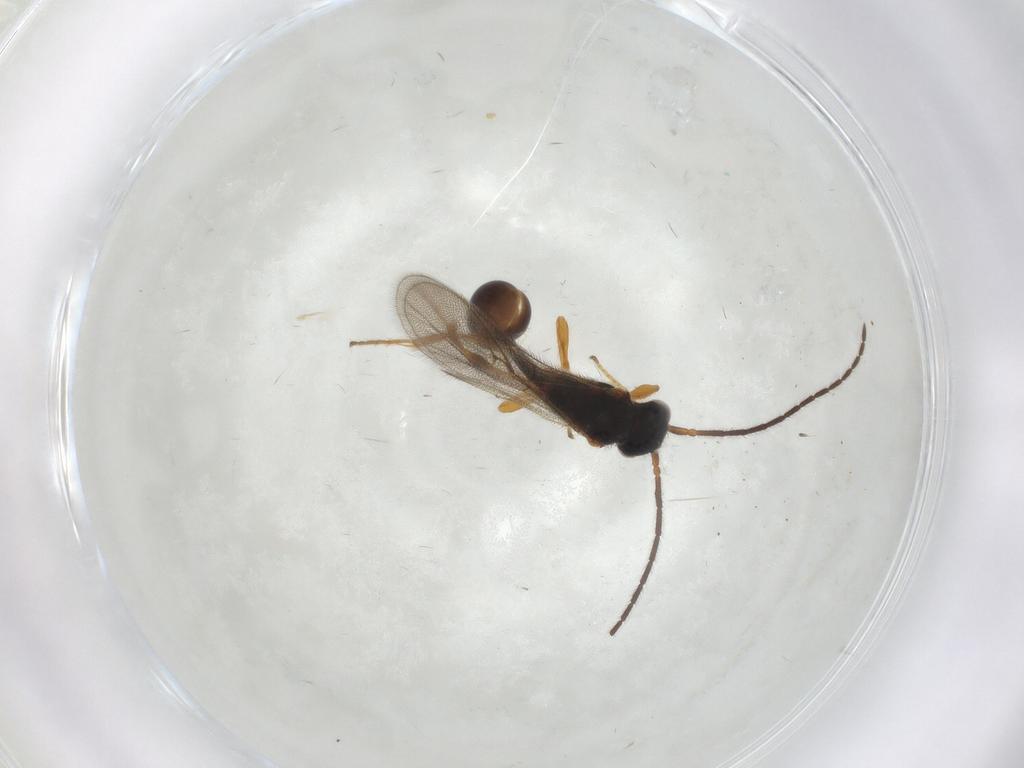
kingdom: Animalia
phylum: Arthropoda
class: Insecta
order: Hymenoptera
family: Diapriidae
